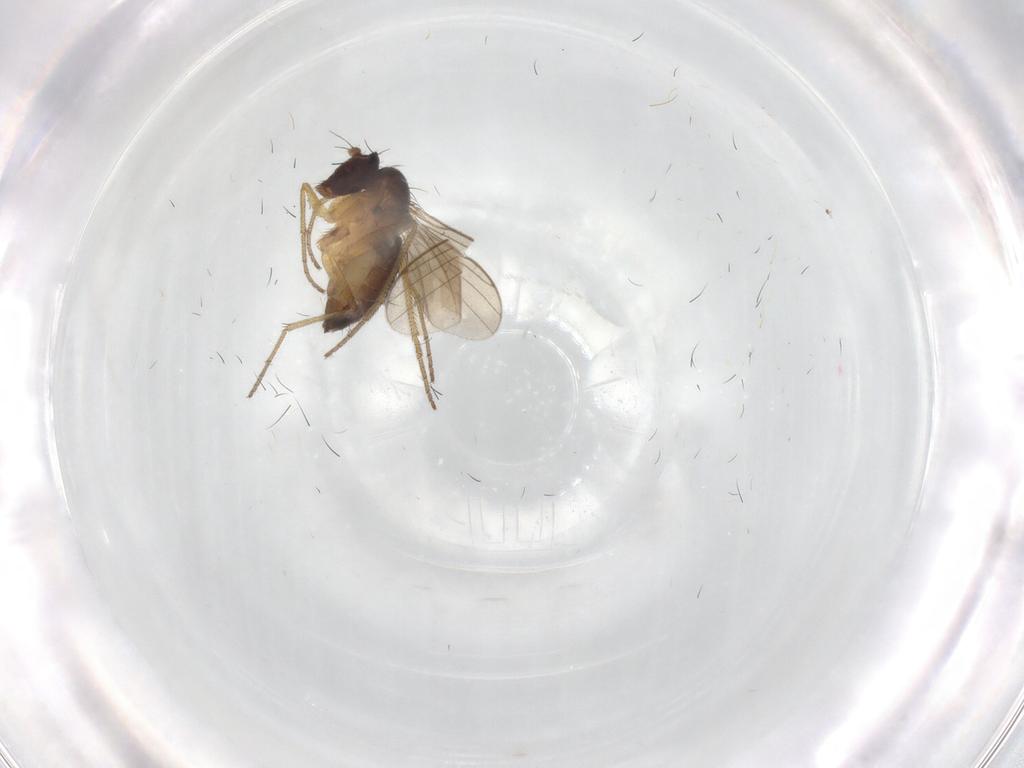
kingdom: Animalia
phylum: Arthropoda
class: Insecta
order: Diptera
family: Dolichopodidae
